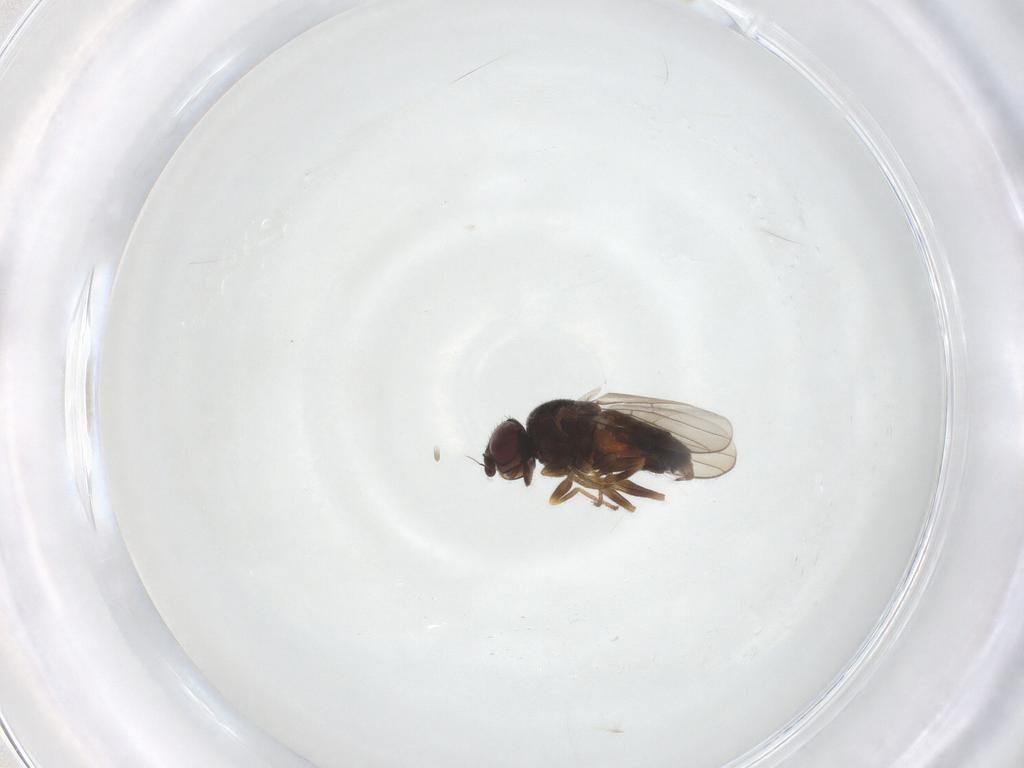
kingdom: Animalia
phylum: Arthropoda
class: Insecta
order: Diptera
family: Chloropidae
